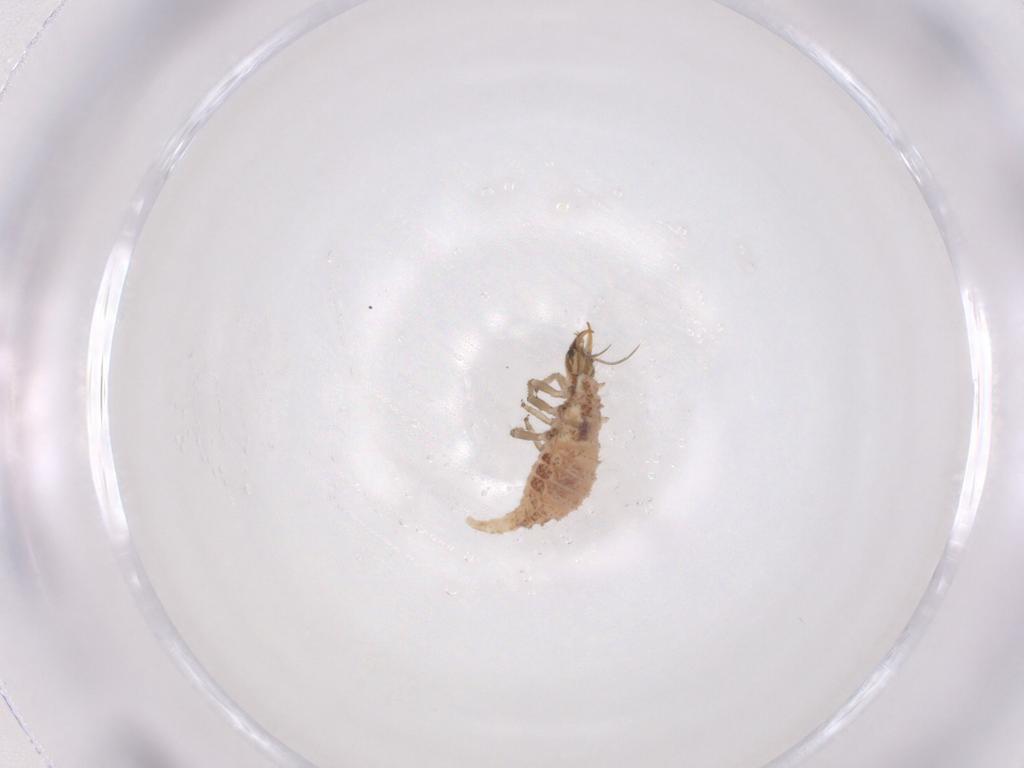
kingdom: Animalia
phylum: Arthropoda
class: Insecta
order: Neuroptera
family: Chrysopidae
